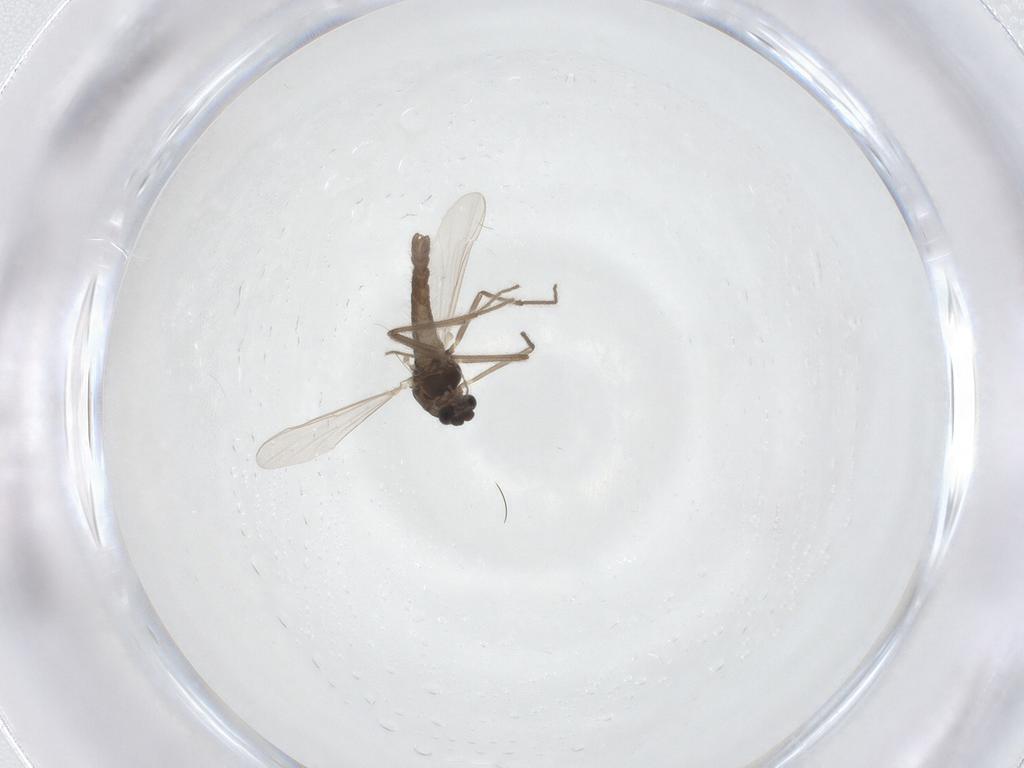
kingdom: Animalia
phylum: Arthropoda
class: Insecta
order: Diptera
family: Chironomidae
